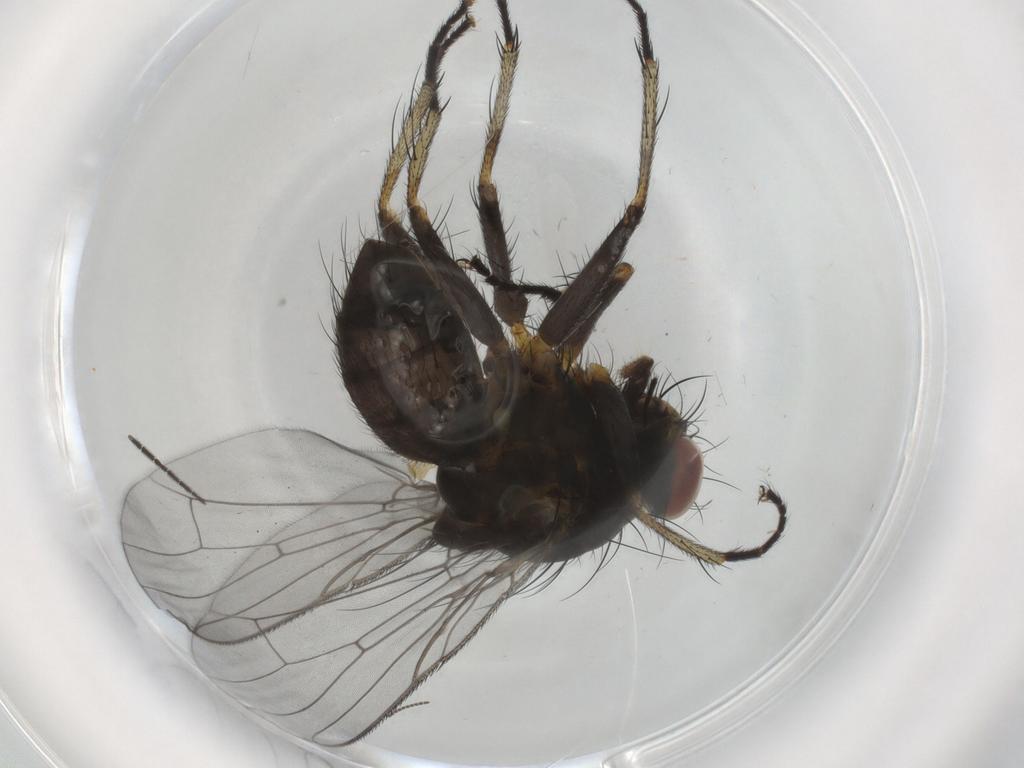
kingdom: Animalia
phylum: Arthropoda
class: Insecta
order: Diptera
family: Muscidae
